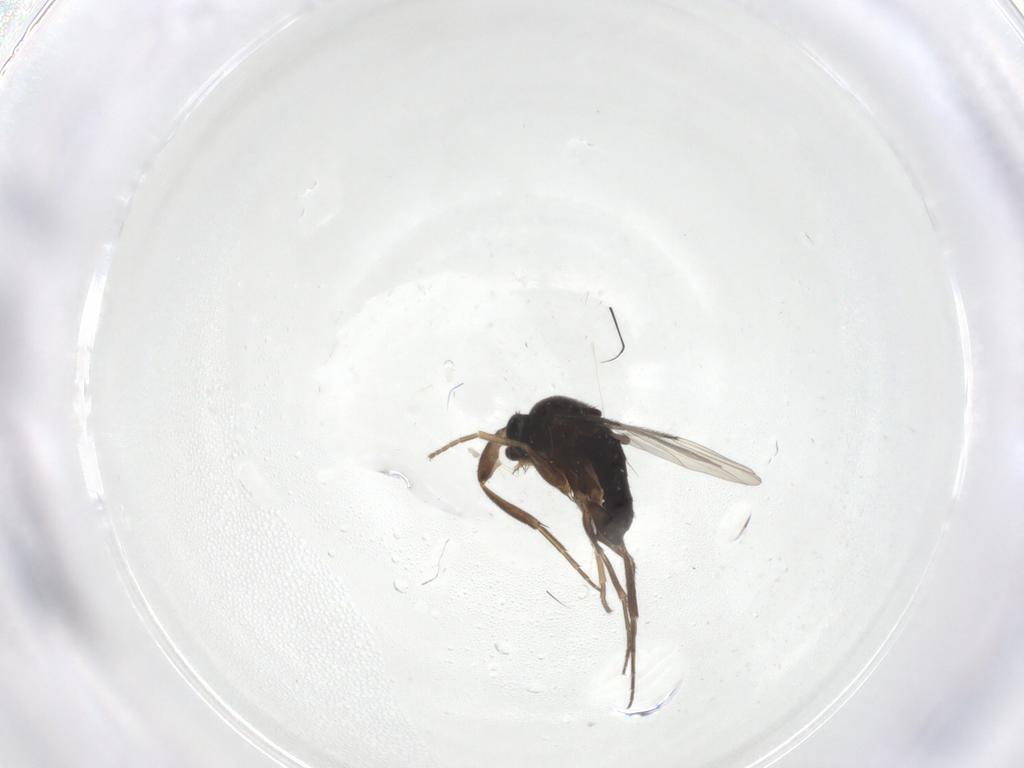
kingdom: Animalia
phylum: Arthropoda
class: Insecta
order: Diptera
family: Phoridae
